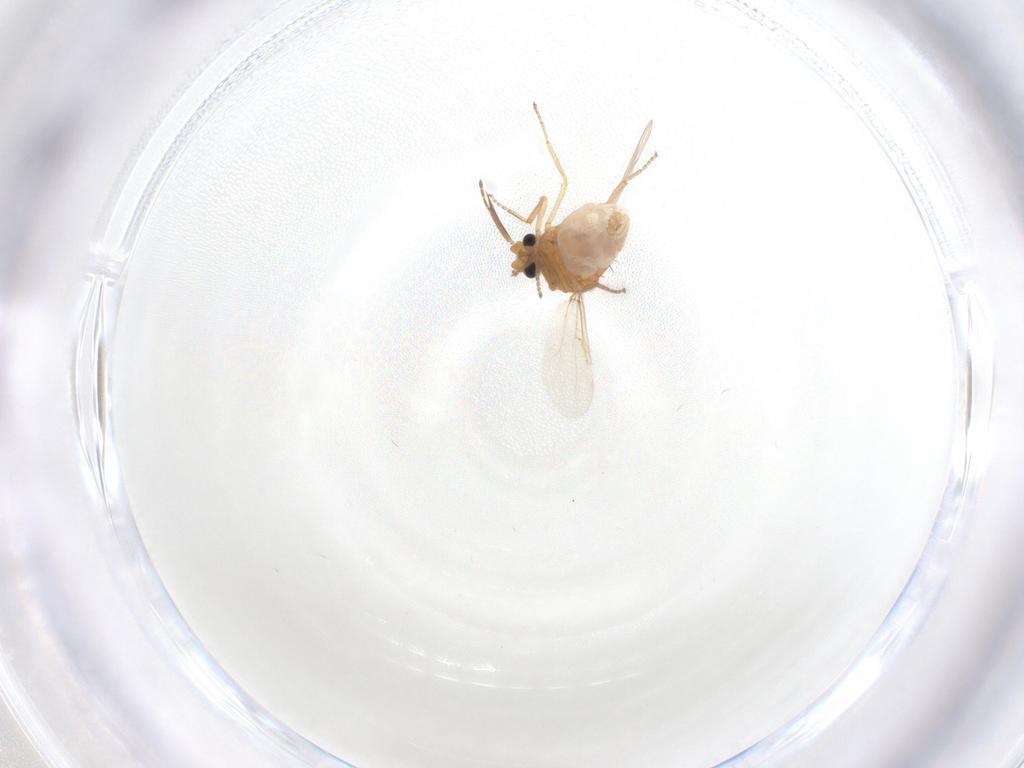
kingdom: Animalia
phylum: Arthropoda
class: Insecta
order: Diptera
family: Ceratopogonidae
